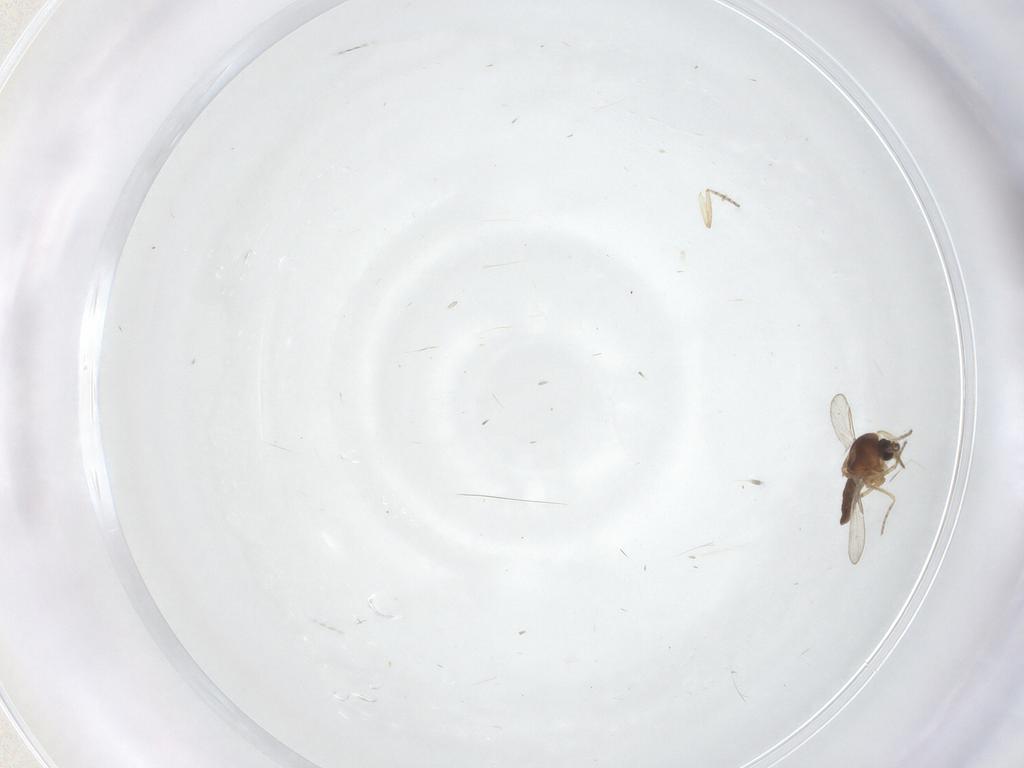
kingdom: Animalia
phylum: Arthropoda
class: Insecta
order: Diptera
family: Ceratopogonidae
